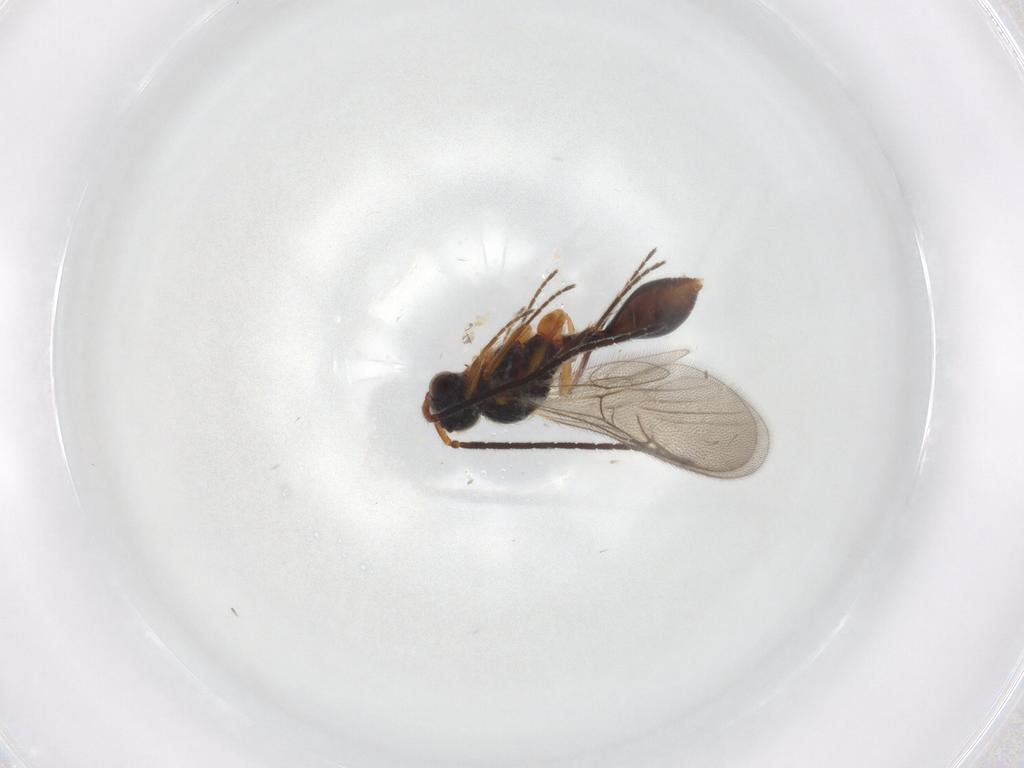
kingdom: Animalia
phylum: Arthropoda
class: Insecta
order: Hymenoptera
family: Diapriidae
